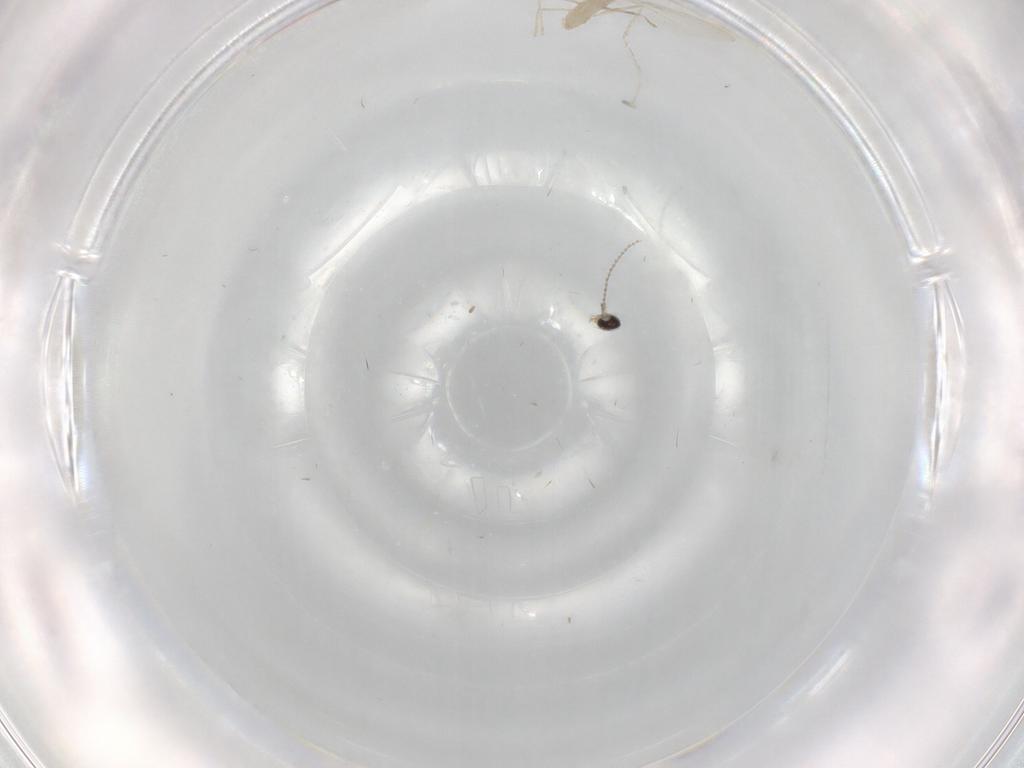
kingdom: Animalia
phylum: Arthropoda
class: Insecta
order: Diptera
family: Cecidomyiidae
